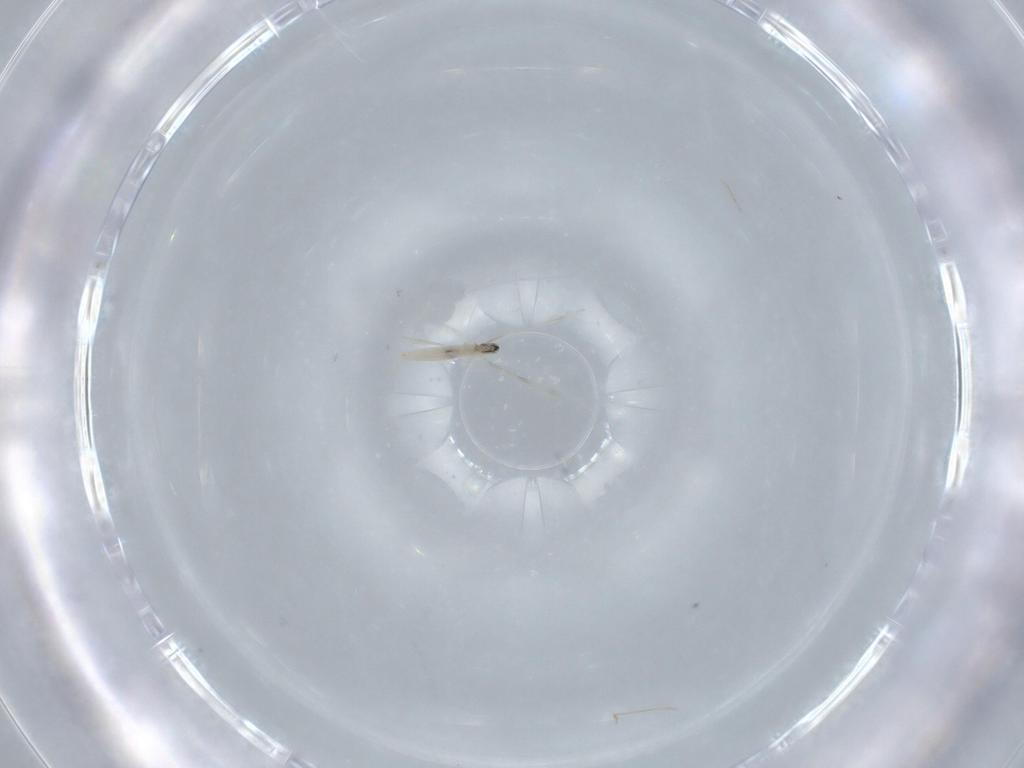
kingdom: Animalia
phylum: Arthropoda
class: Insecta
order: Diptera
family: Cecidomyiidae
